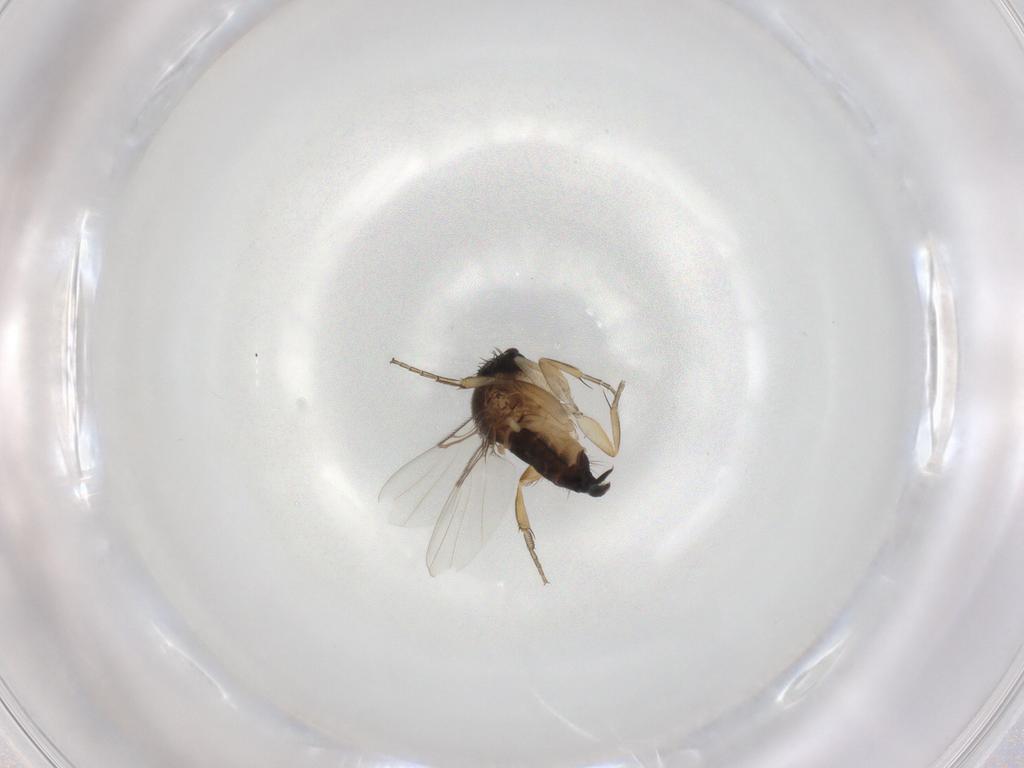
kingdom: Animalia
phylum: Arthropoda
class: Insecta
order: Diptera
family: Phoridae
